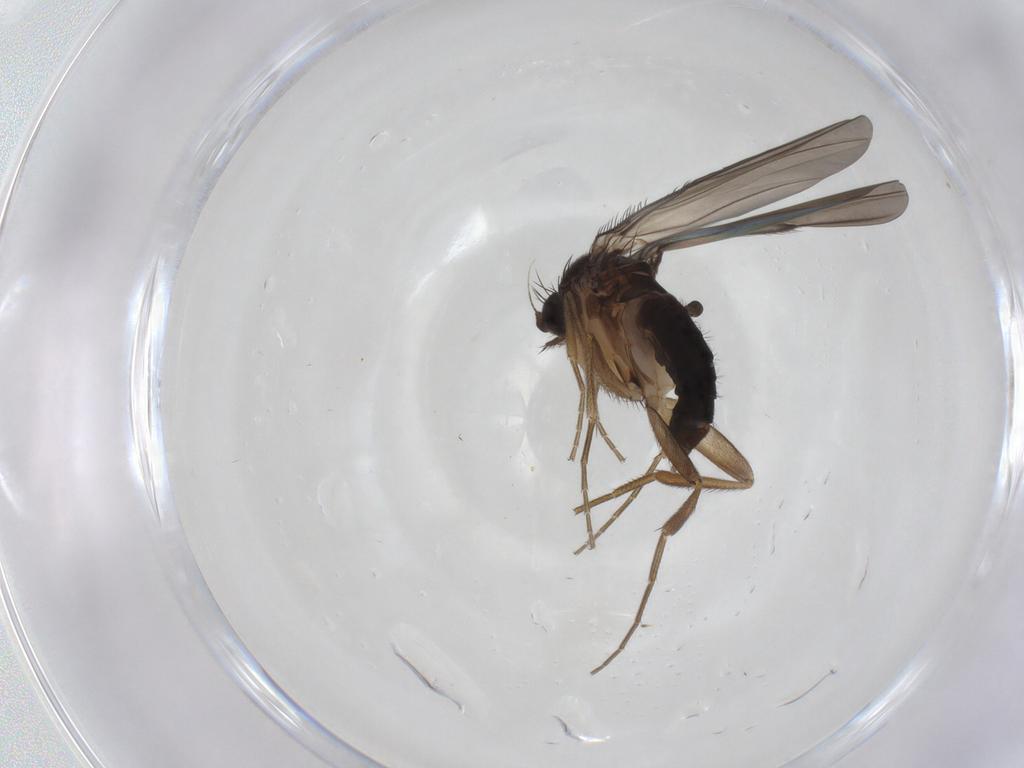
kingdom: Animalia
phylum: Arthropoda
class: Insecta
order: Diptera
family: Phoridae
